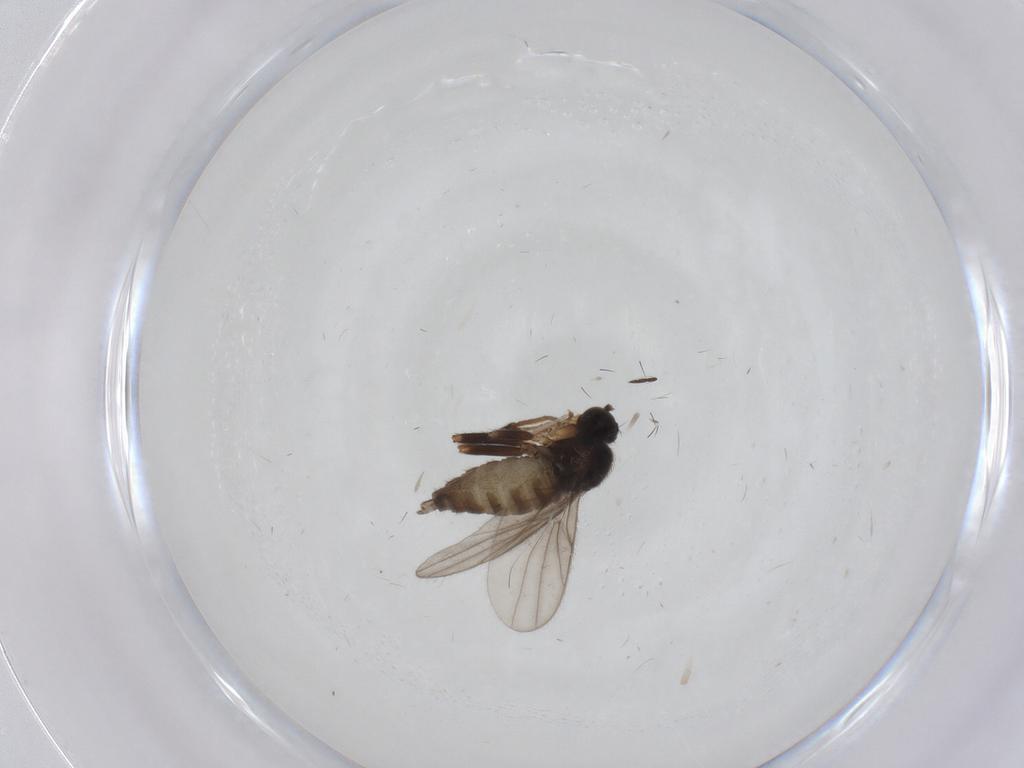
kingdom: Animalia
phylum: Arthropoda
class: Insecta
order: Diptera
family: Hybotidae
